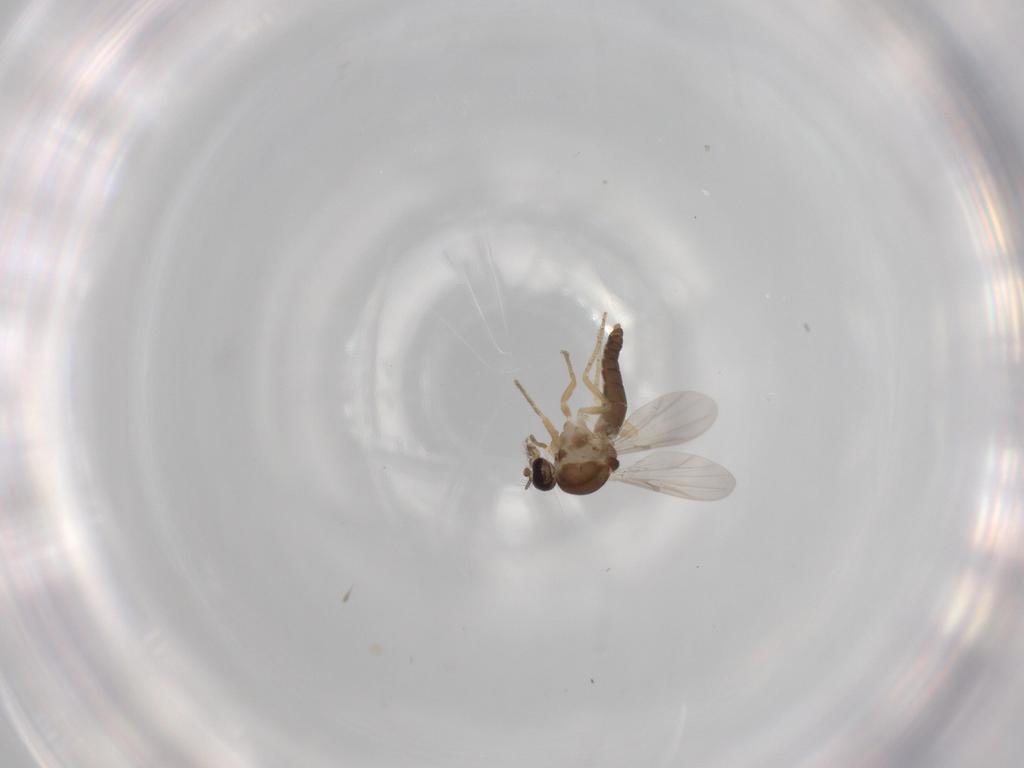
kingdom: Animalia
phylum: Arthropoda
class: Insecta
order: Diptera
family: Ceratopogonidae
